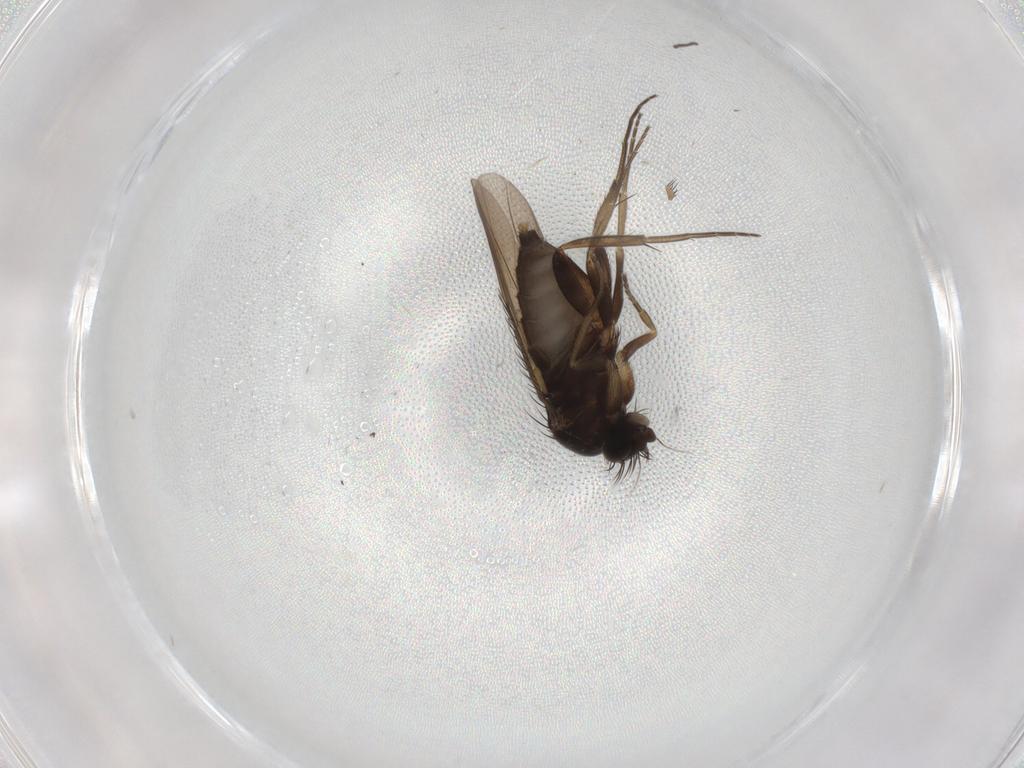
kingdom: Animalia
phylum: Arthropoda
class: Insecta
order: Diptera
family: Phoridae
